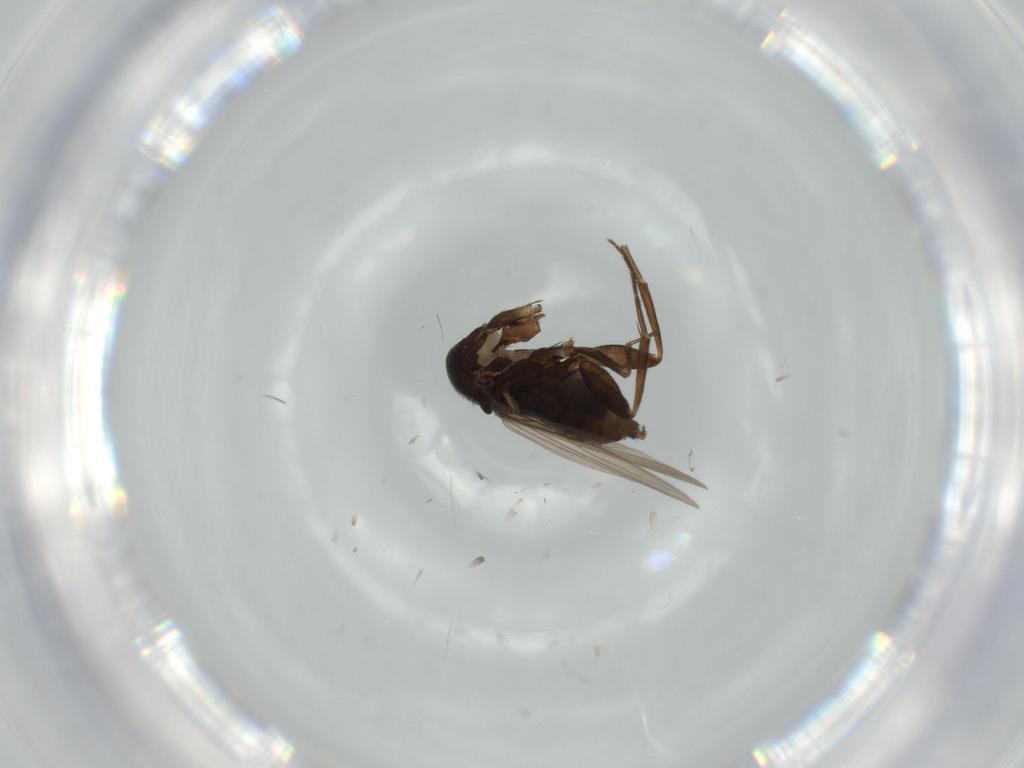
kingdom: Animalia
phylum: Arthropoda
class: Insecta
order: Diptera
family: Phoridae
